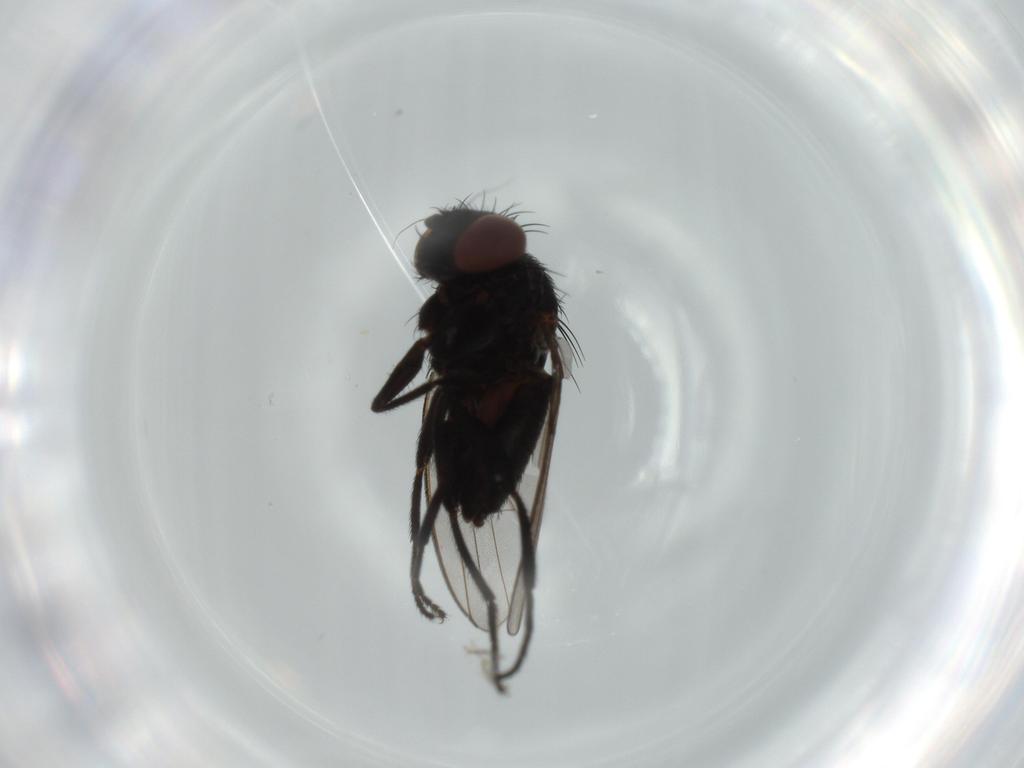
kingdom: Animalia
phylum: Arthropoda
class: Insecta
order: Diptera
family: Milichiidae
